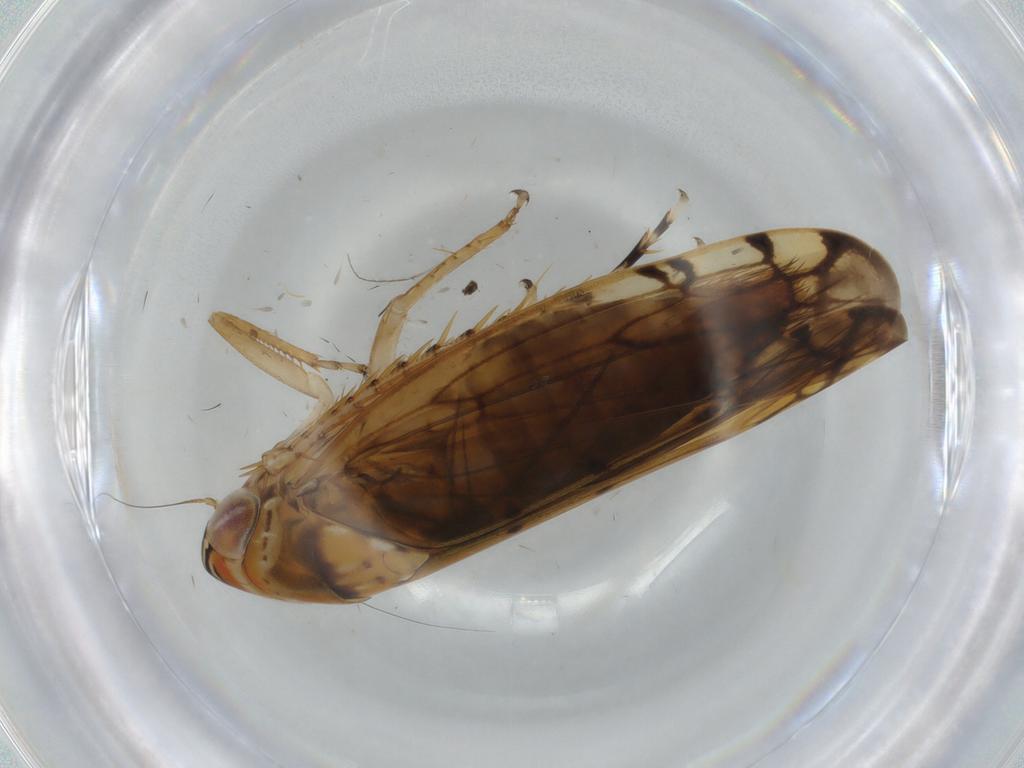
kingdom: Animalia
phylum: Arthropoda
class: Insecta
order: Hemiptera
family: Cicadellidae
